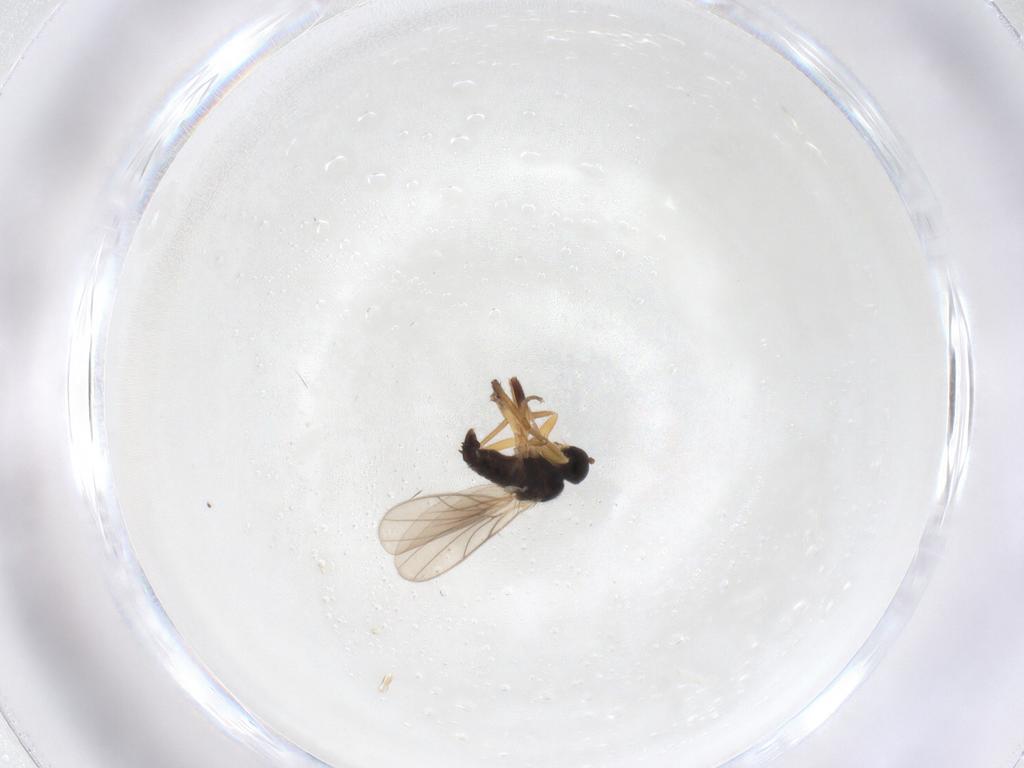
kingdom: Animalia
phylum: Arthropoda
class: Insecta
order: Diptera
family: Hybotidae
